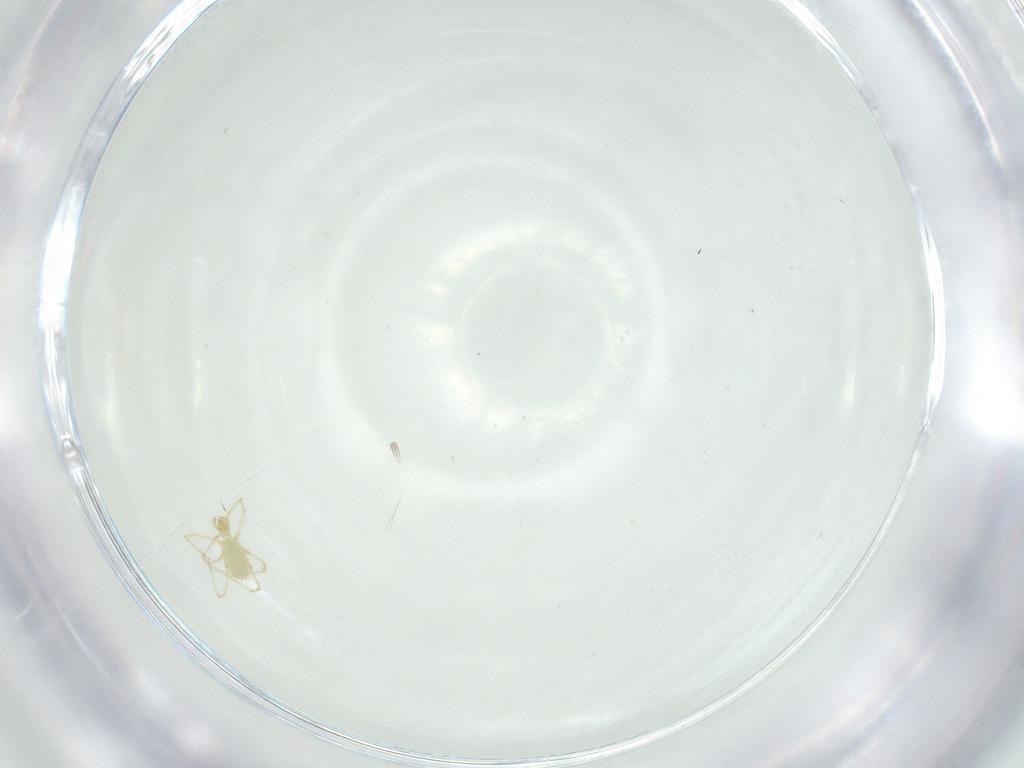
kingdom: Animalia
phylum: Arthropoda
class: Arachnida
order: Trombidiformes
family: Erythraeidae
